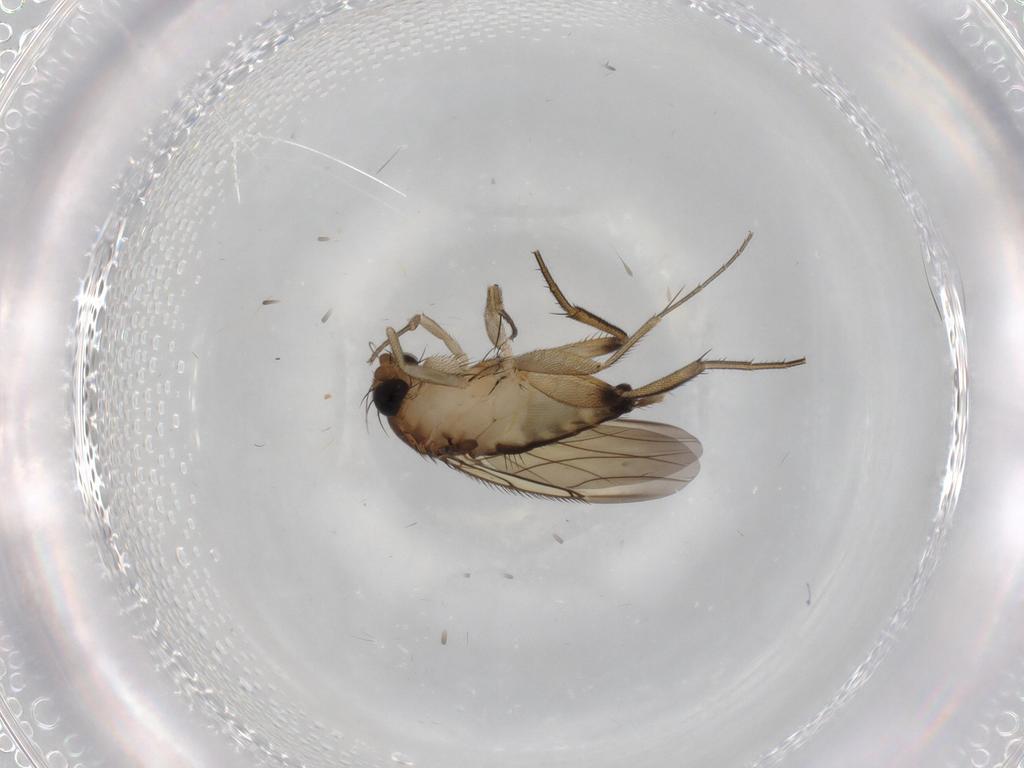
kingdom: Animalia
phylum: Arthropoda
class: Insecta
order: Diptera
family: Phoridae
